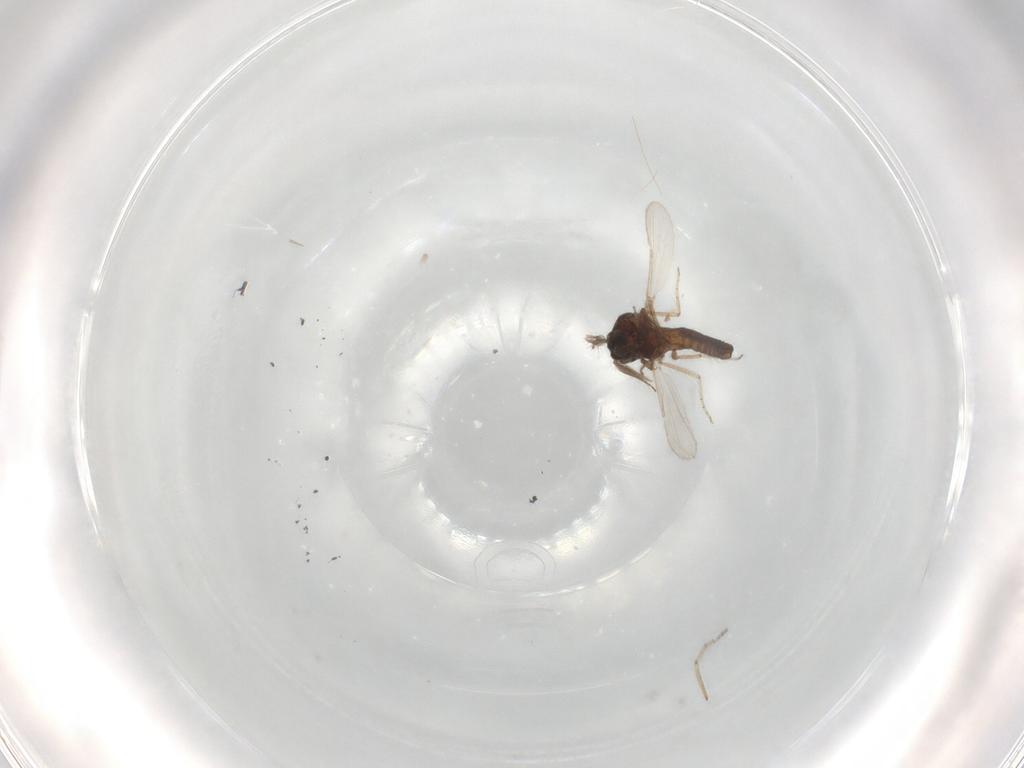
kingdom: Animalia
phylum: Arthropoda
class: Insecta
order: Diptera
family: Ceratopogonidae
